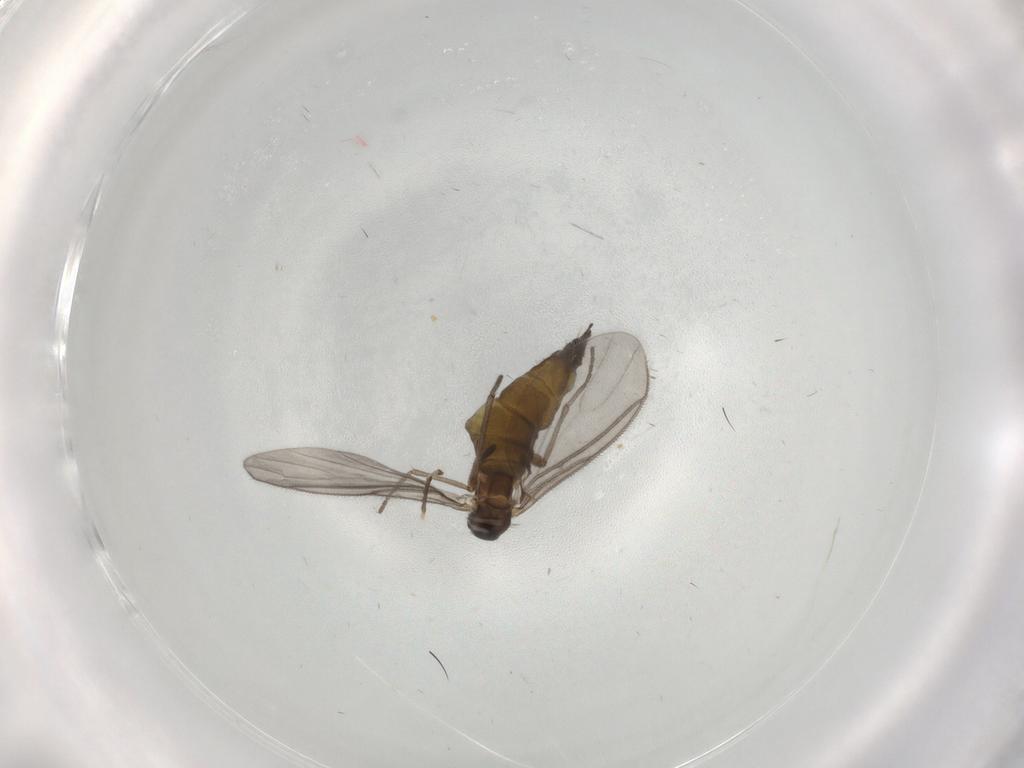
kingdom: Animalia
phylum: Arthropoda
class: Insecta
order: Diptera
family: Sciaridae
